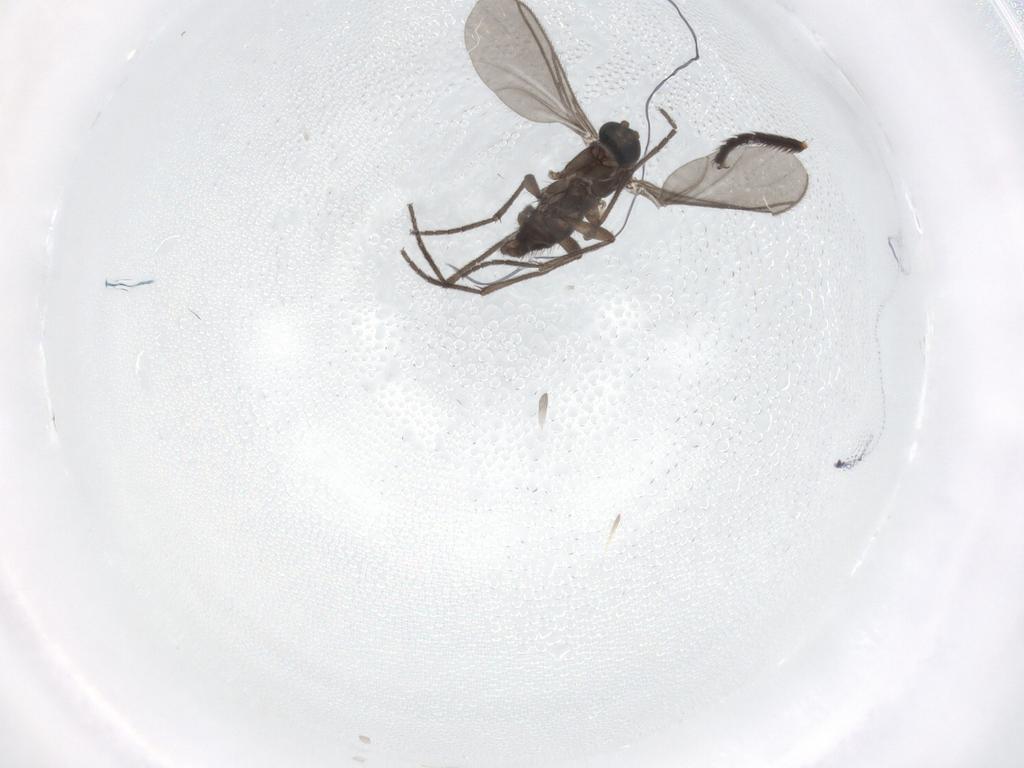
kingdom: Animalia
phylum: Arthropoda
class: Insecta
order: Diptera
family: Sciaridae
